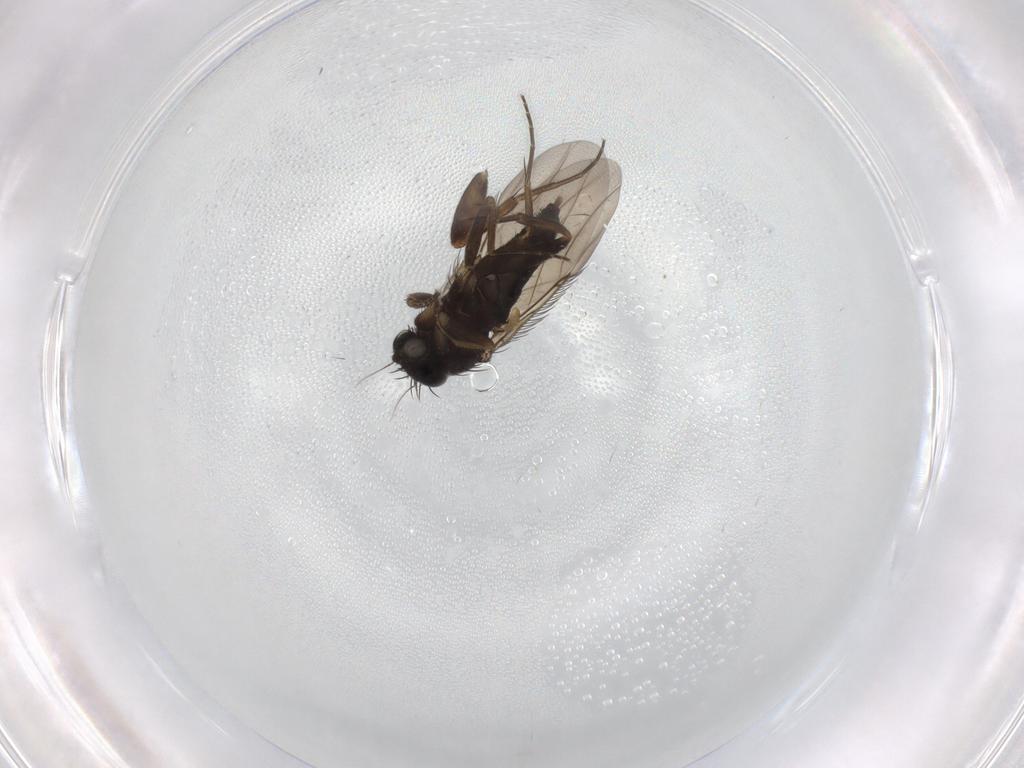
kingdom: Animalia
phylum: Arthropoda
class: Insecta
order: Diptera
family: Phoridae
